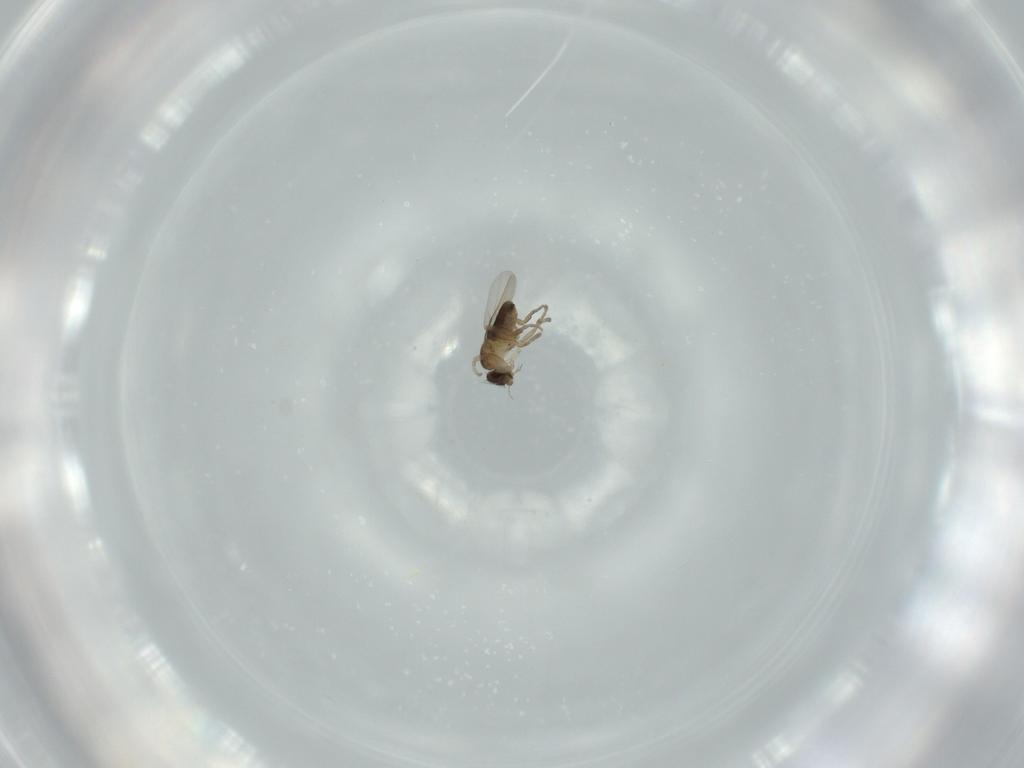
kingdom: Animalia
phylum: Arthropoda
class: Insecta
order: Diptera
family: Phoridae
